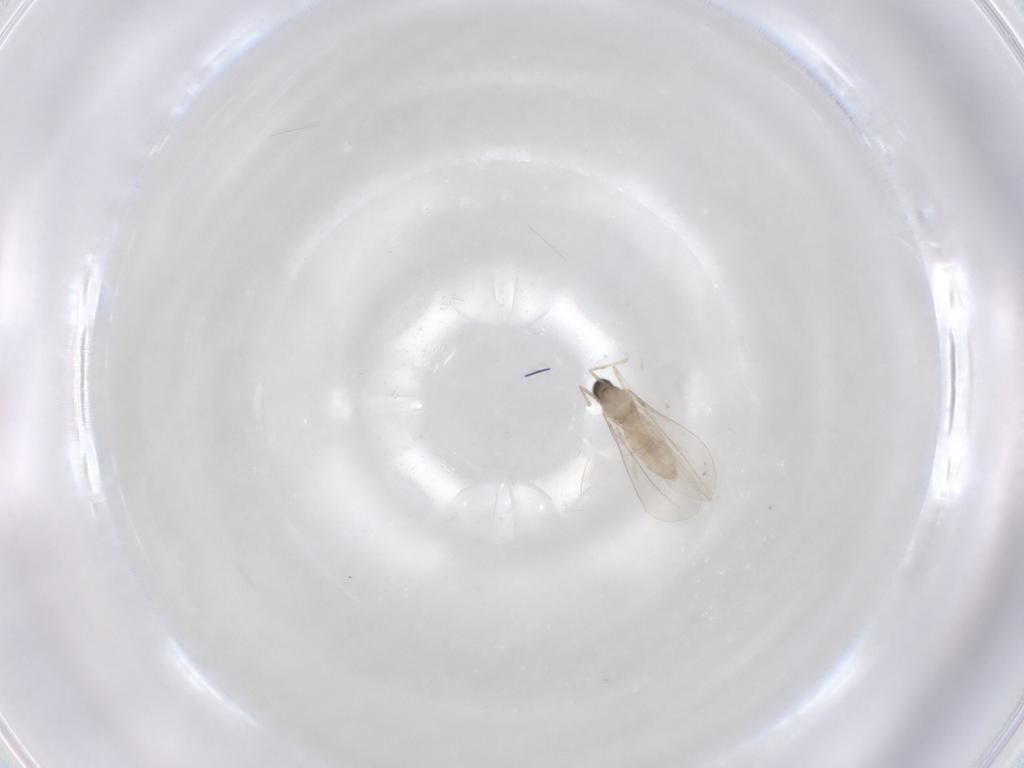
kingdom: Animalia
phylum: Arthropoda
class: Insecta
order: Diptera
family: Cecidomyiidae
